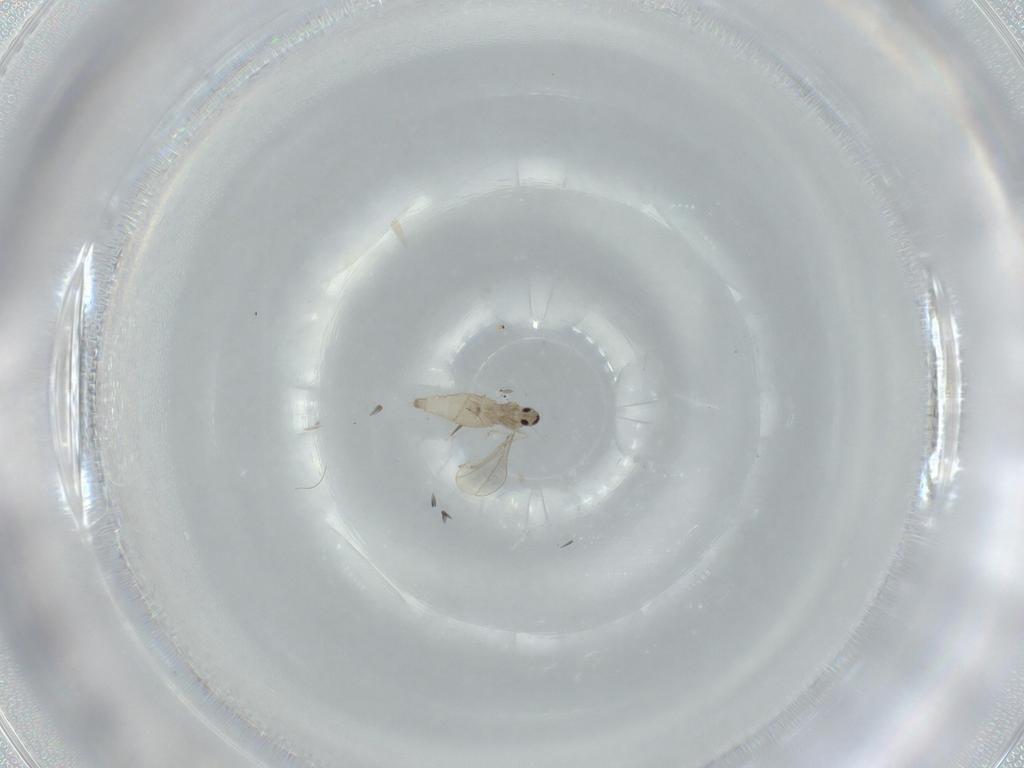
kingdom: Animalia
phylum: Arthropoda
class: Insecta
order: Diptera
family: Cecidomyiidae
